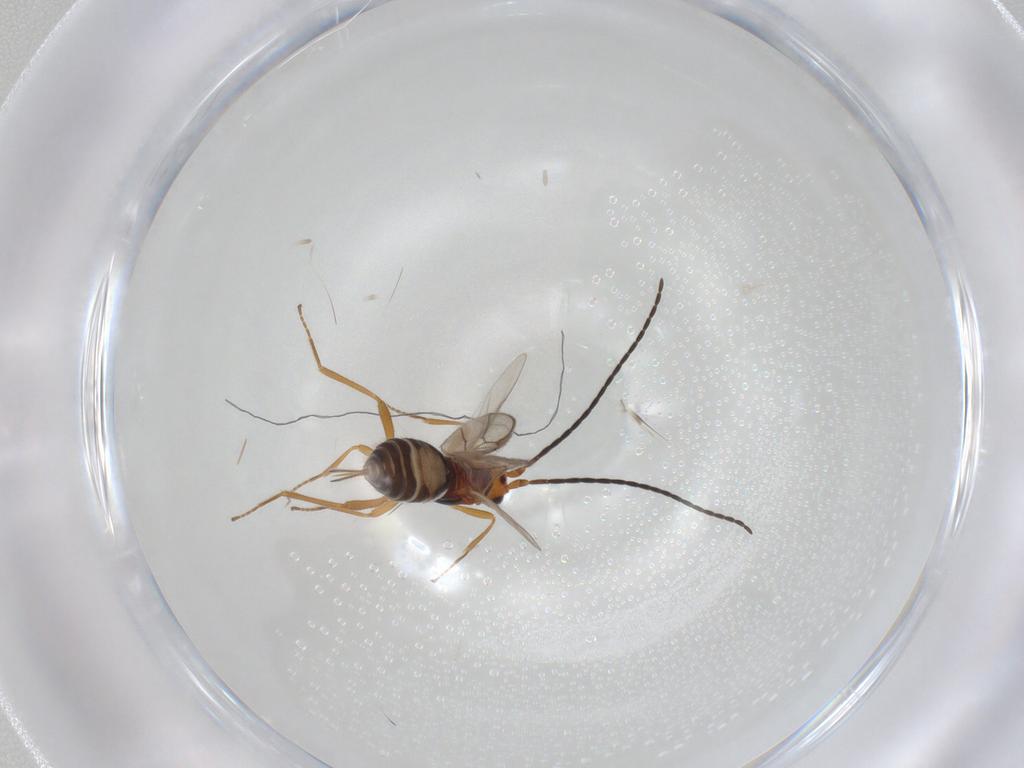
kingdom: Animalia
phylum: Arthropoda
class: Insecta
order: Hymenoptera
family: Braconidae
